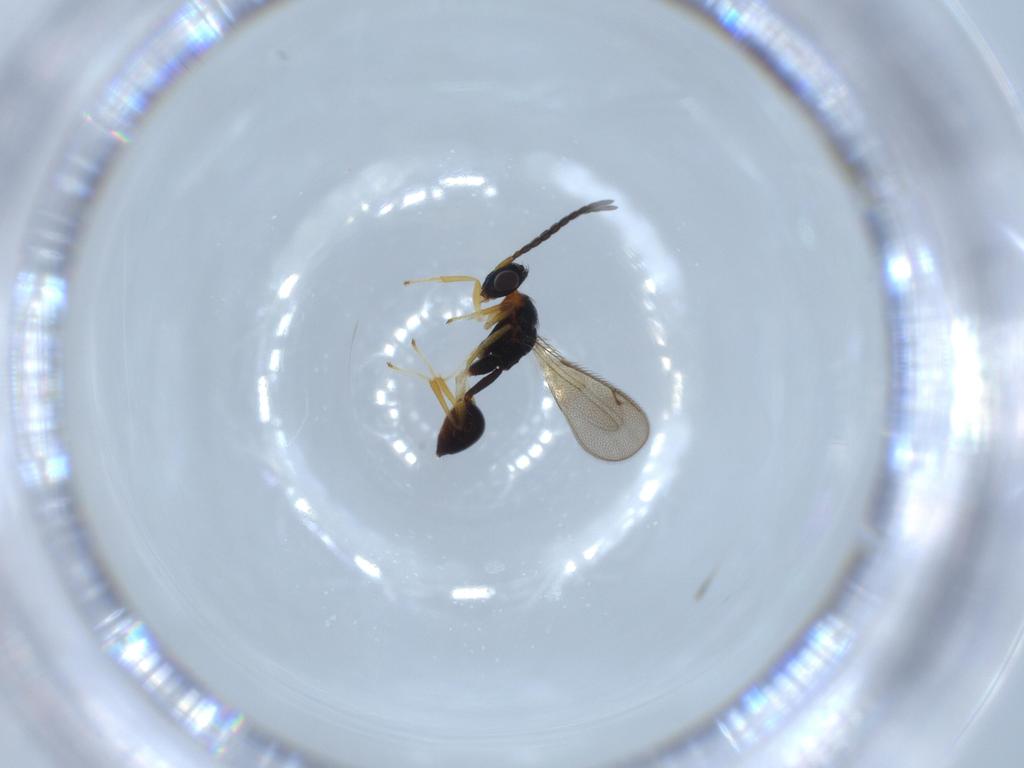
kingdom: Animalia
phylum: Arthropoda
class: Insecta
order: Hymenoptera
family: Diparidae
